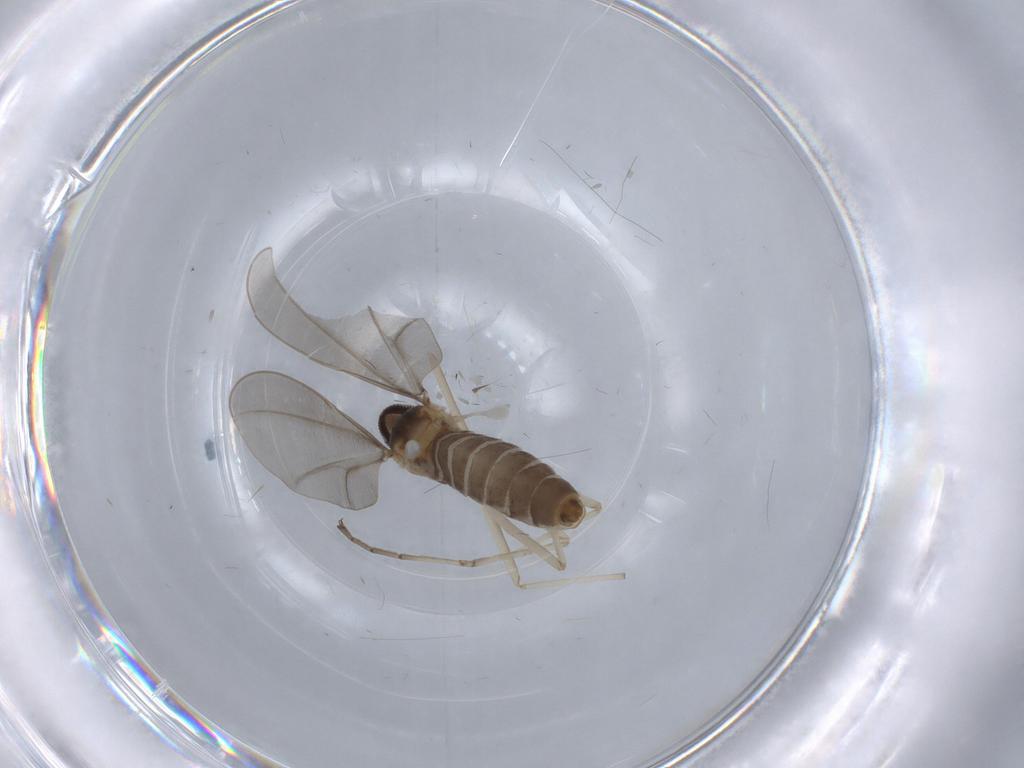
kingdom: Animalia
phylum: Arthropoda
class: Insecta
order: Diptera
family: Cecidomyiidae
